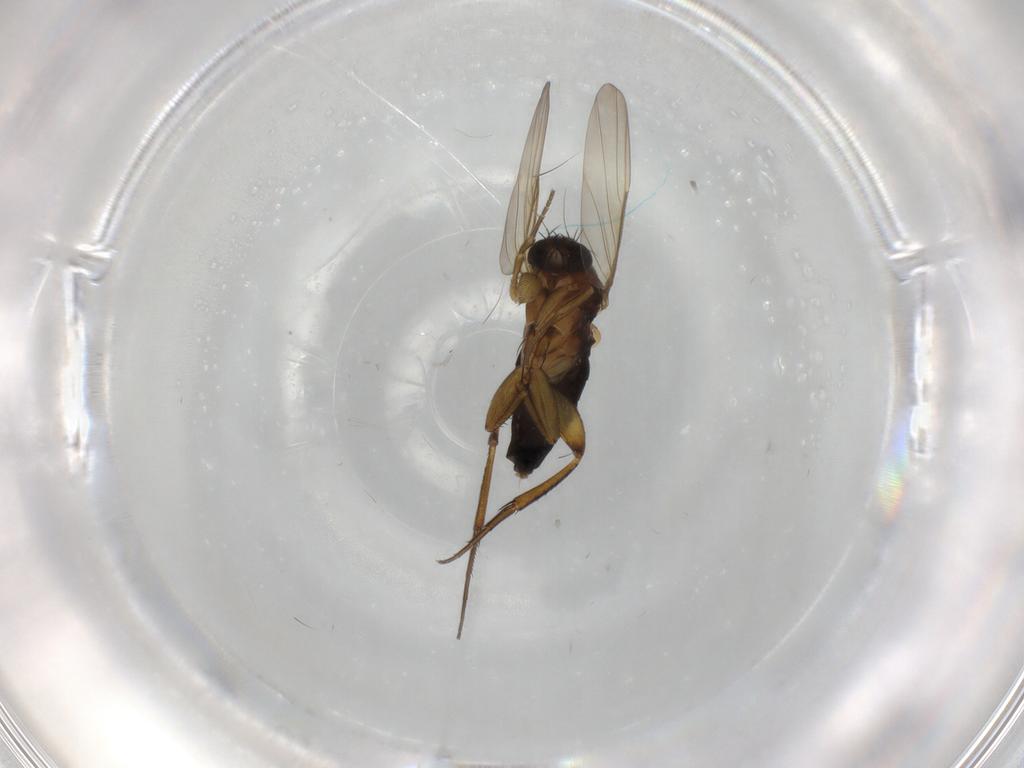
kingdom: Animalia
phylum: Arthropoda
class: Insecta
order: Diptera
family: Phoridae
